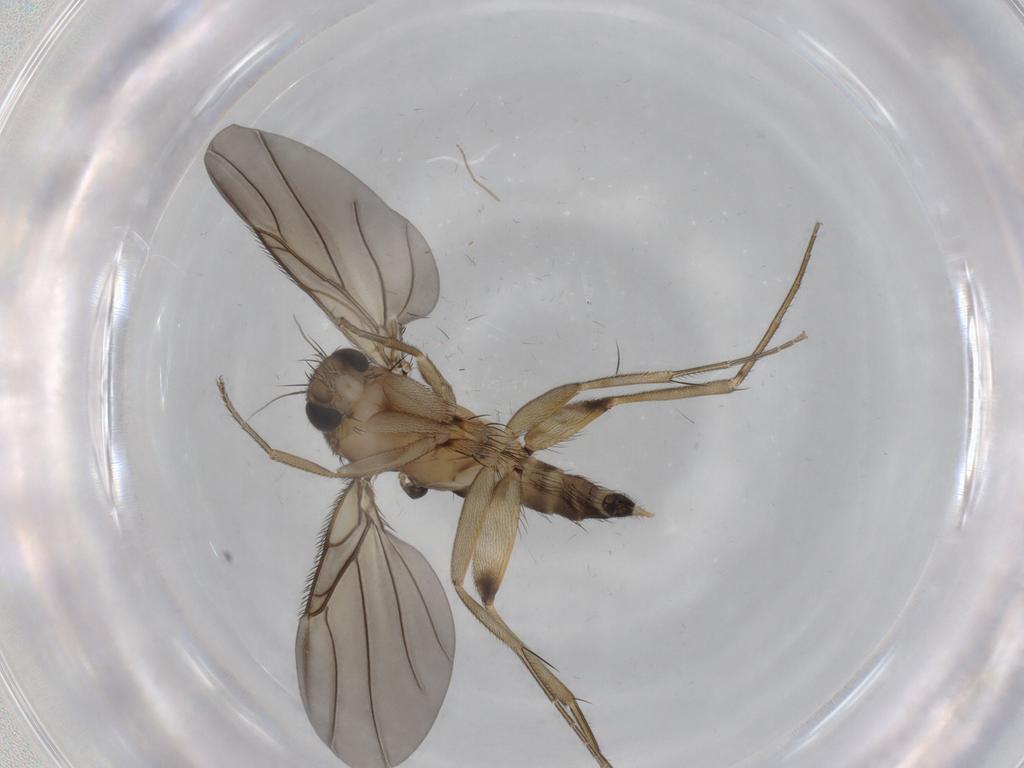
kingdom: Animalia
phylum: Arthropoda
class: Insecta
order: Diptera
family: Phoridae
